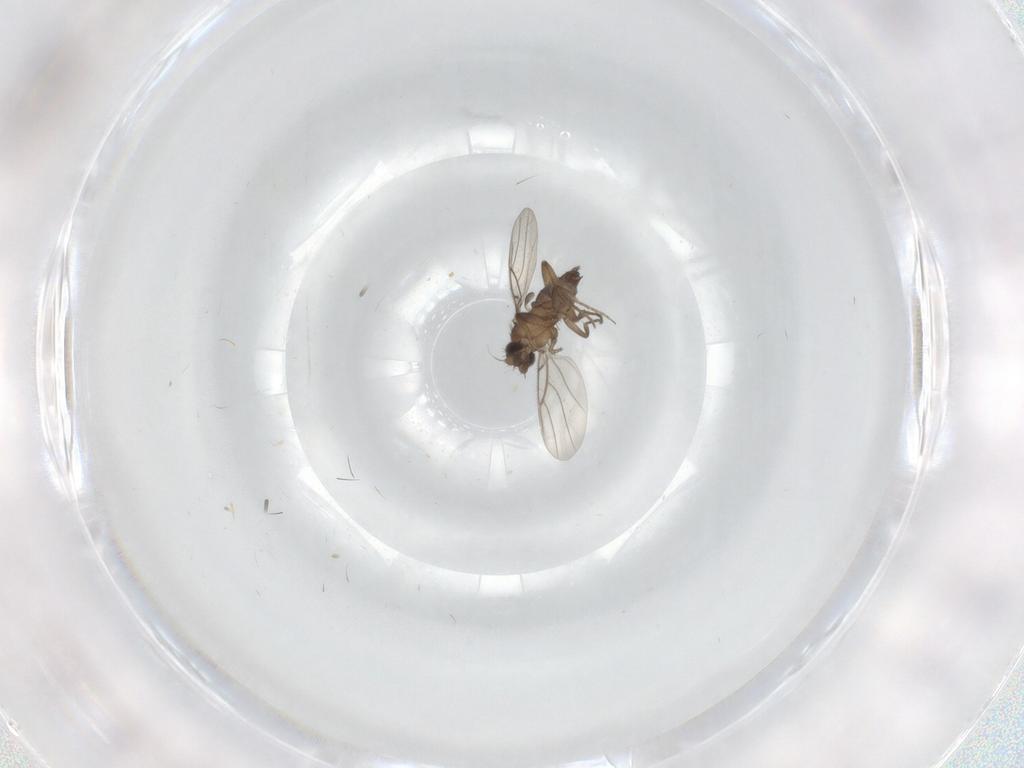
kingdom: Animalia
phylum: Arthropoda
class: Insecta
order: Diptera
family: Phoridae
